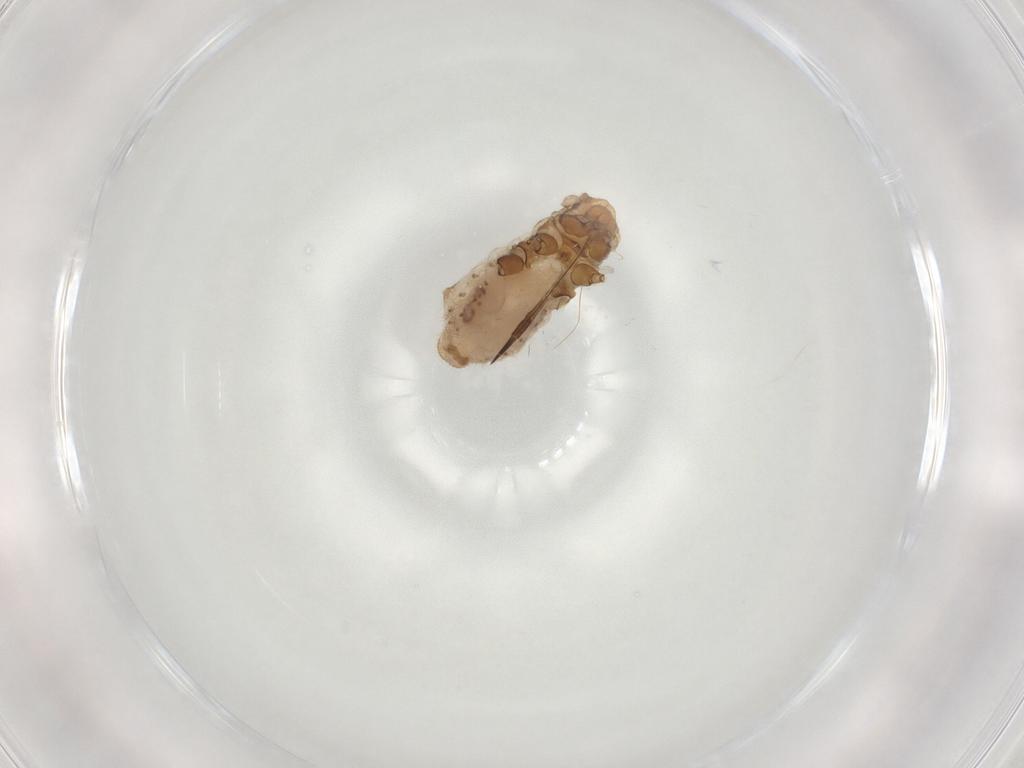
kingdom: Animalia
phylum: Arthropoda
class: Insecta
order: Hemiptera
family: Aphididae
